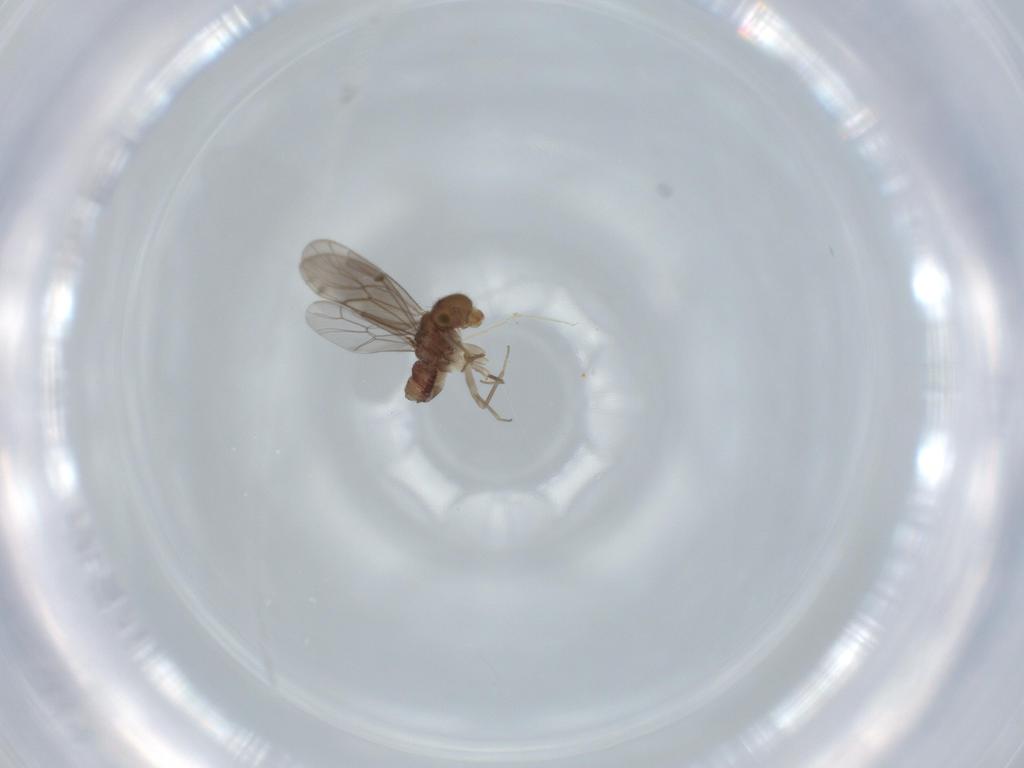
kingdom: Animalia
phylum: Arthropoda
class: Insecta
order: Psocodea
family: Ectopsocidae
